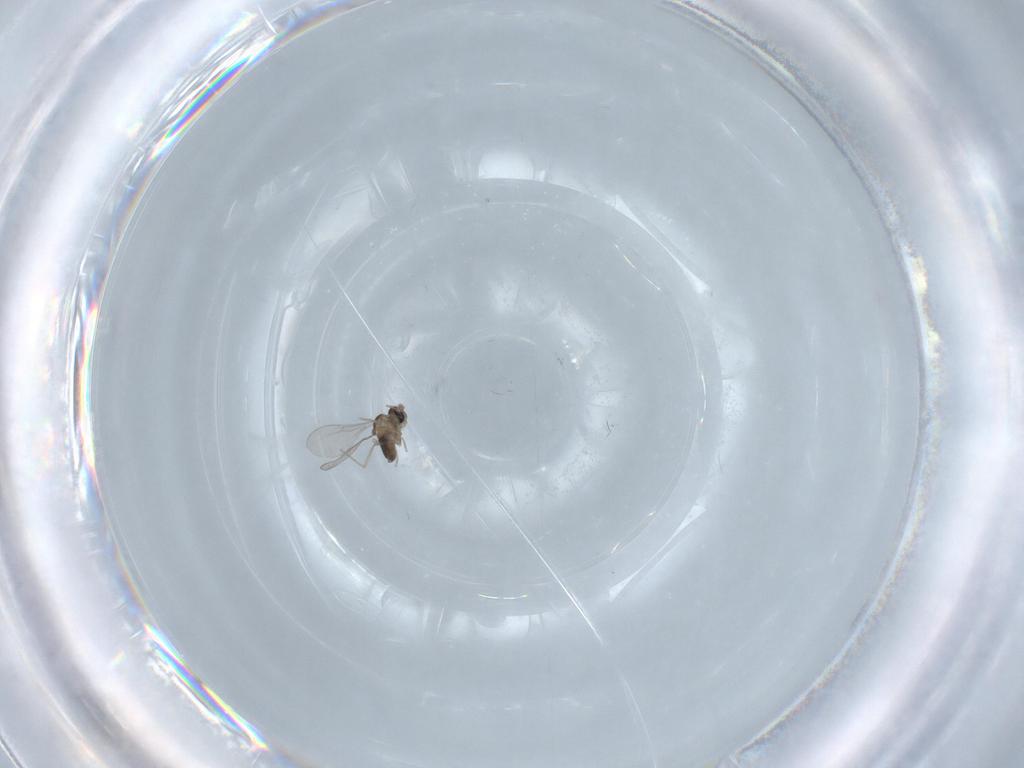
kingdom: Animalia
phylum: Arthropoda
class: Insecta
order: Diptera
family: Cecidomyiidae
